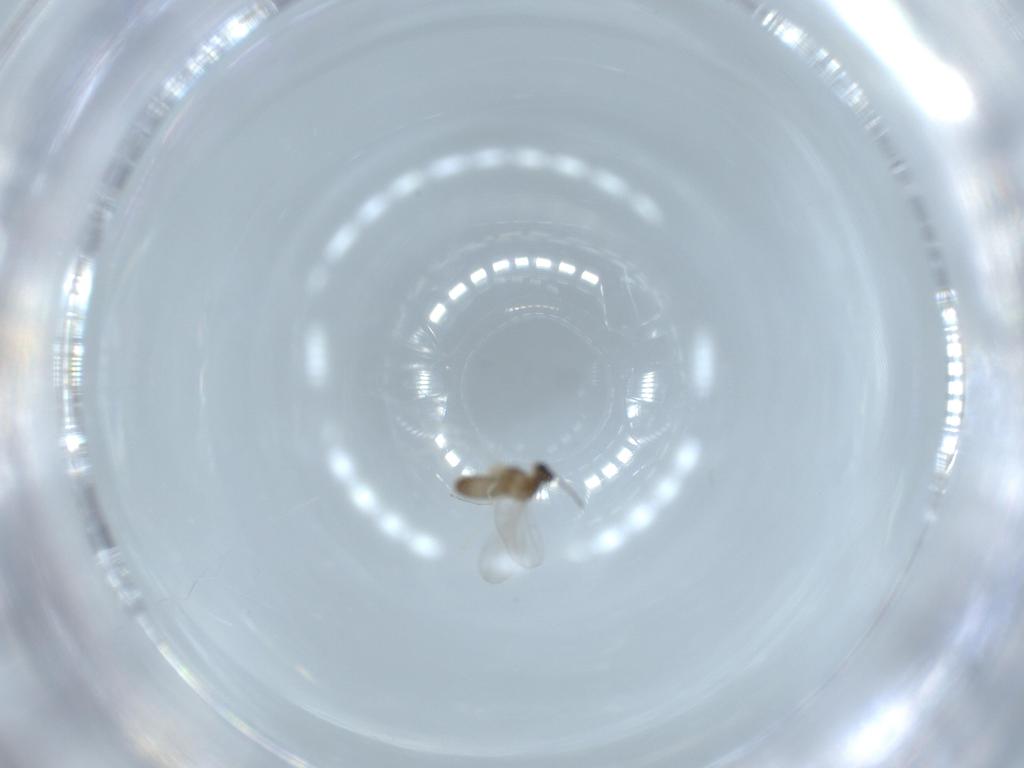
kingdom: Animalia
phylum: Arthropoda
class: Insecta
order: Diptera
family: Cecidomyiidae
